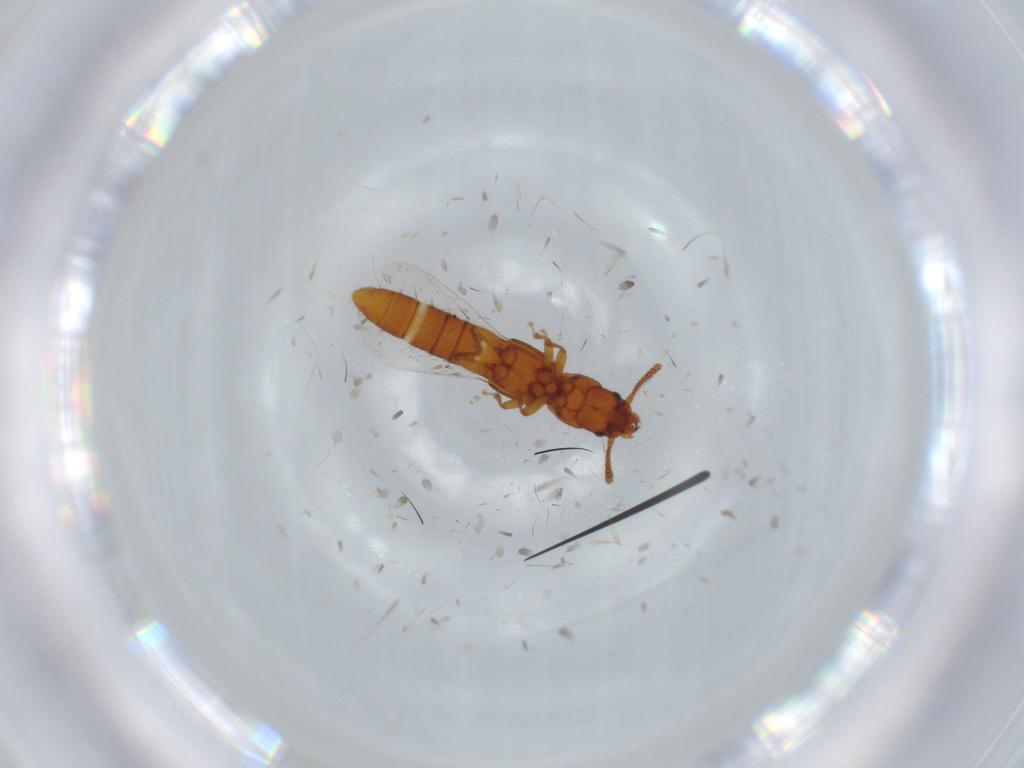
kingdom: Animalia
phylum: Arthropoda
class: Insecta
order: Coleoptera
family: Staphylinidae
